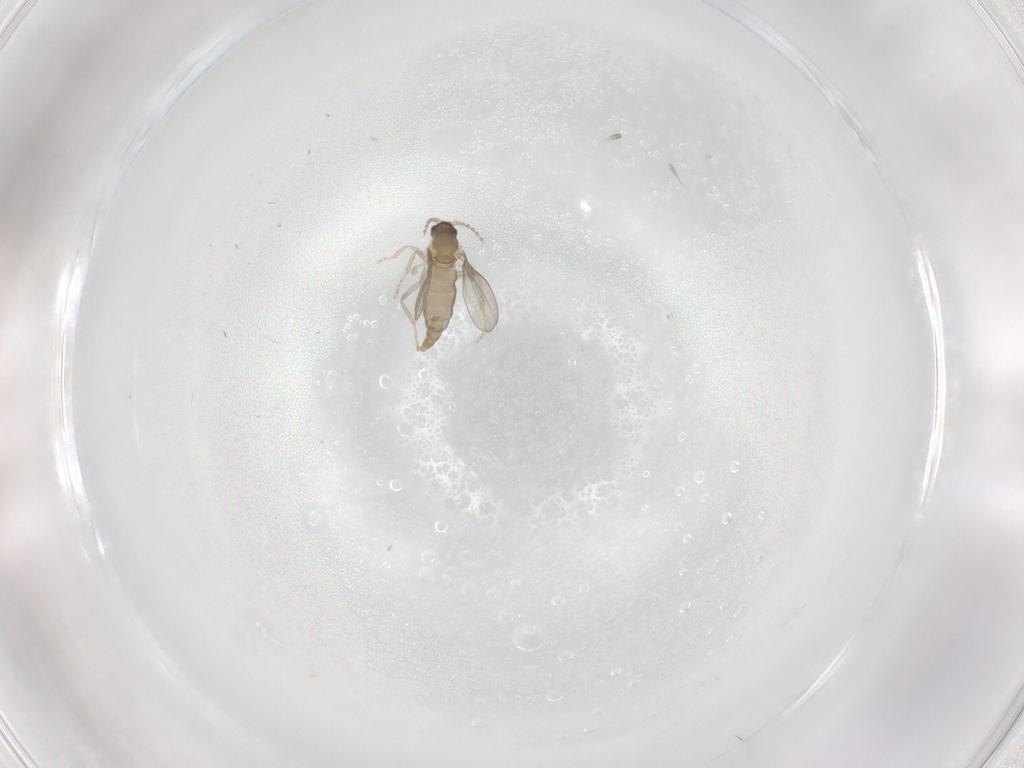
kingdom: Animalia
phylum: Arthropoda
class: Insecta
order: Diptera
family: Cecidomyiidae
